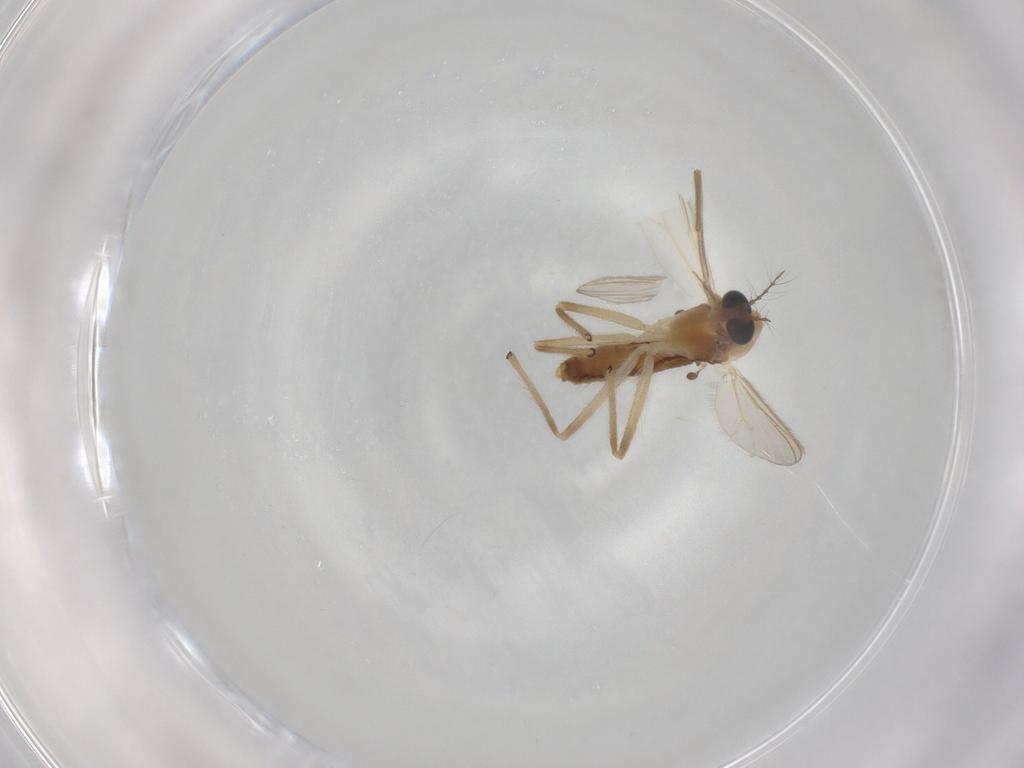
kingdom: Animalia
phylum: Arthropoda
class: Insecta
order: Diptera
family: Chironomidae
